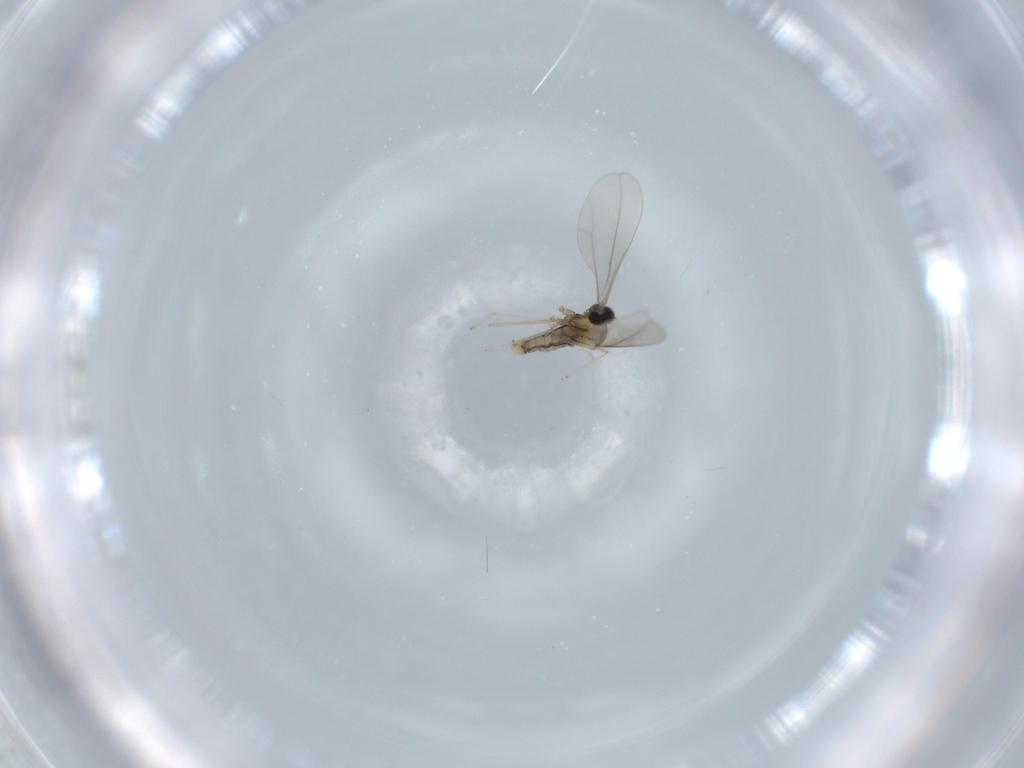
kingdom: Animalia
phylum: Arthropoda
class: Insecta
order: Diptera
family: Cecidomyiidae
